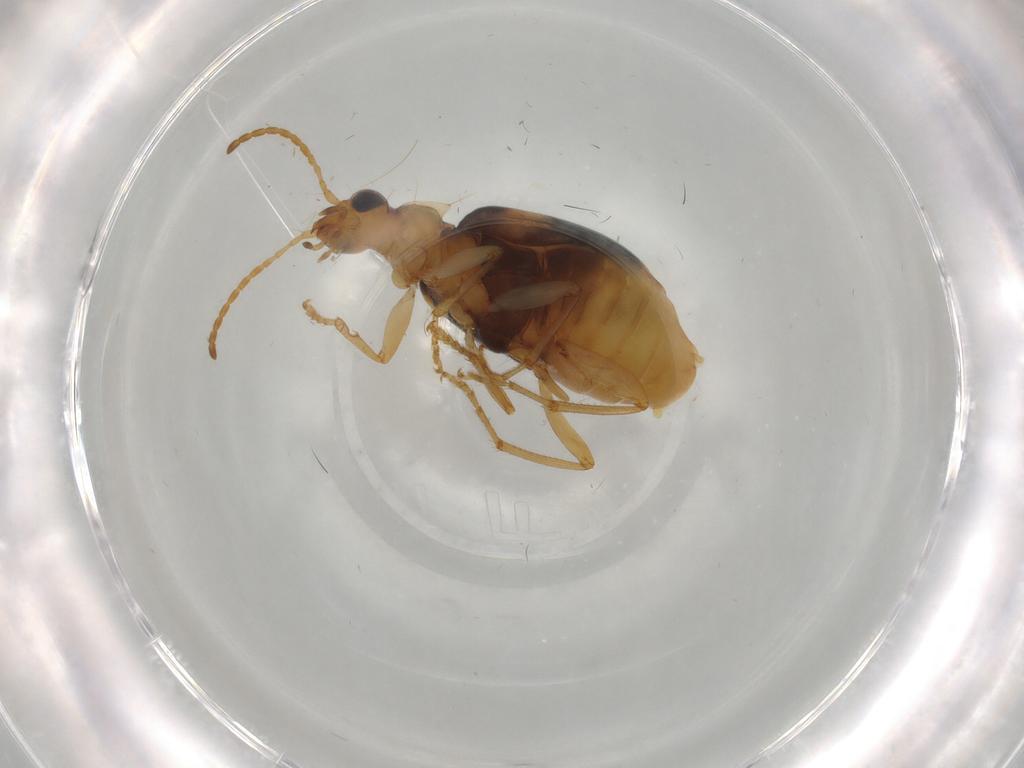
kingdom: Animalia
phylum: Arthropoda
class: Insecta
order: Coleoptera
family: Carabidae
